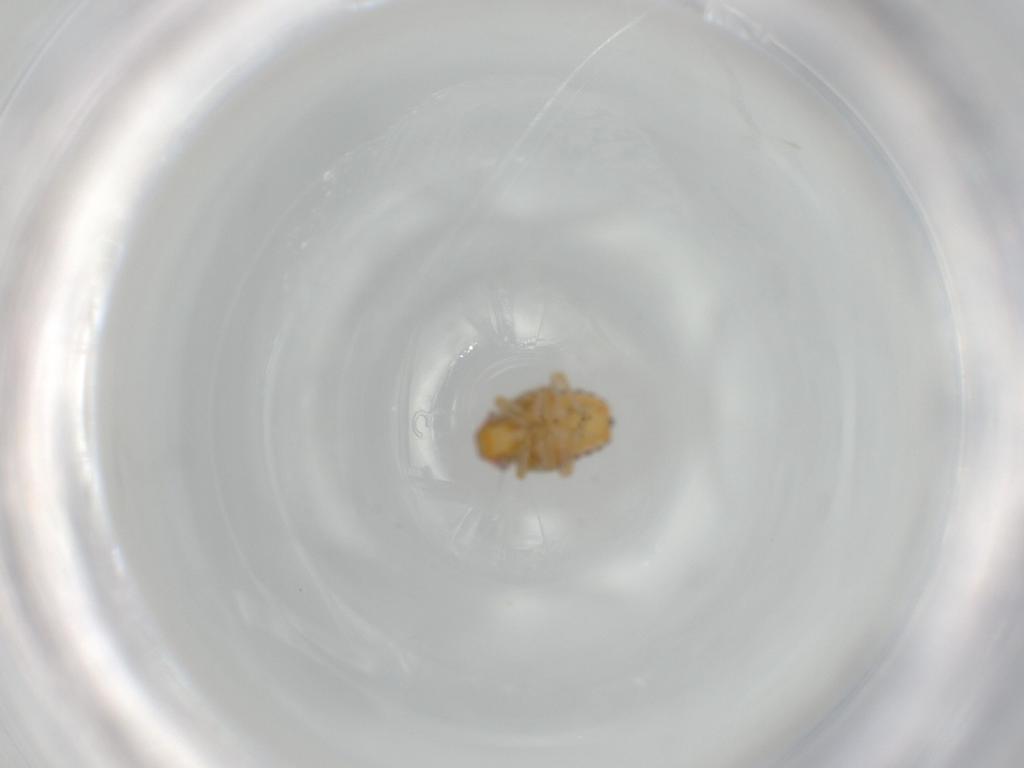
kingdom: Animalia
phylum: Arthropoda
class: Insecta
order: Hemiptera
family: Issidae
